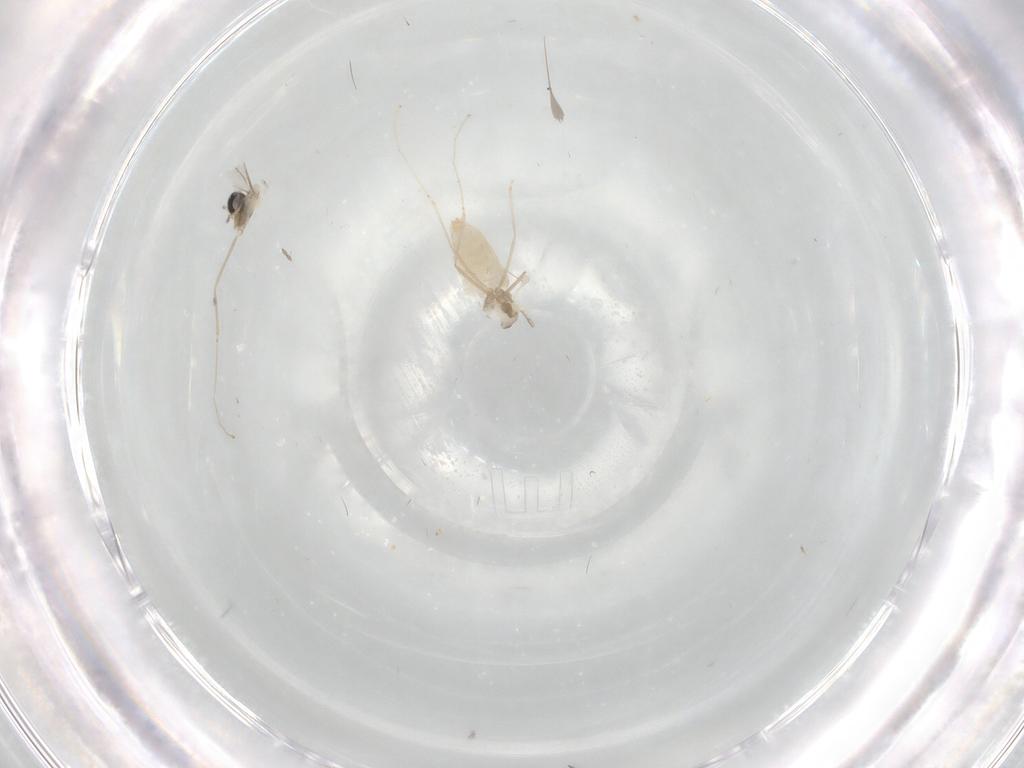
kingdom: Animalia
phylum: Arthropoda
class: Insecta
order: Diptera
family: Cecidomyiidae
